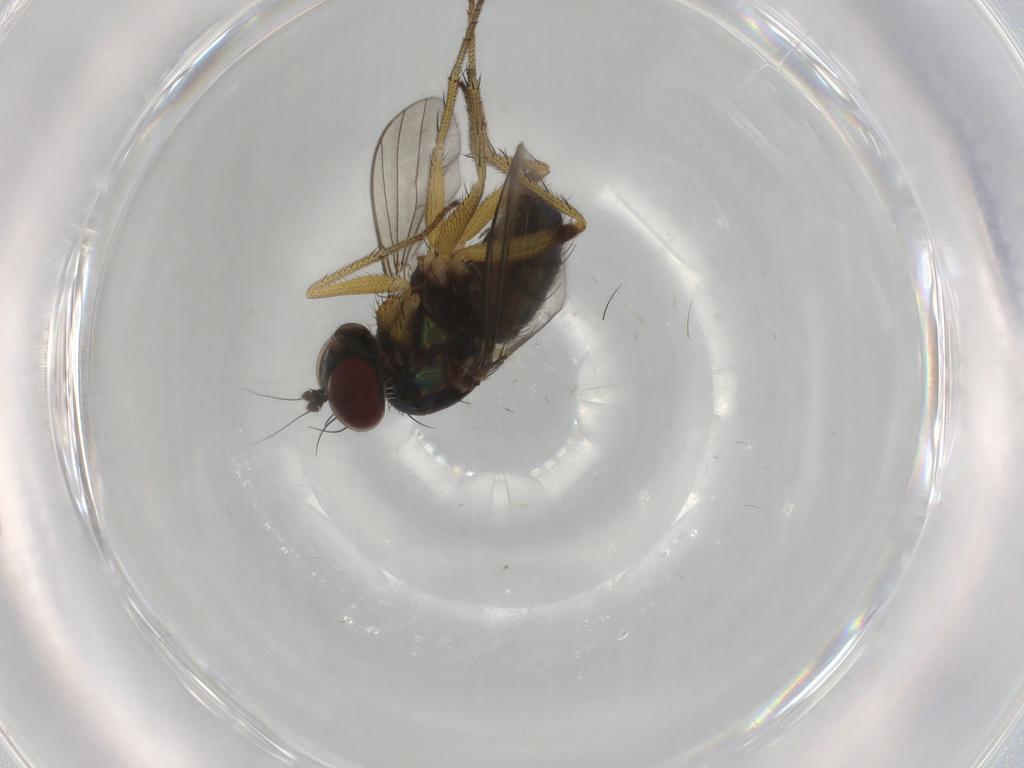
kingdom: Animalia
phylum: Arthropoda
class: Insecta
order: Diptera
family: Dolichopodidae
